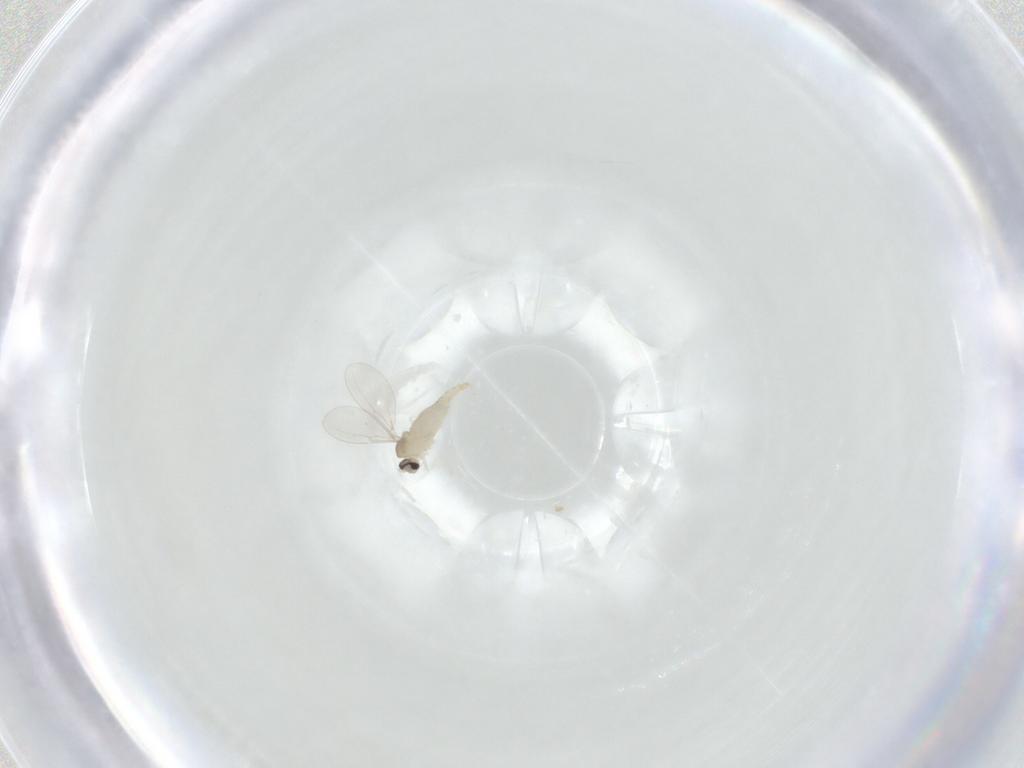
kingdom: Animalia
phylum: Arthropoda
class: Insecta
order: Diptera
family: Cecidomyiidae
